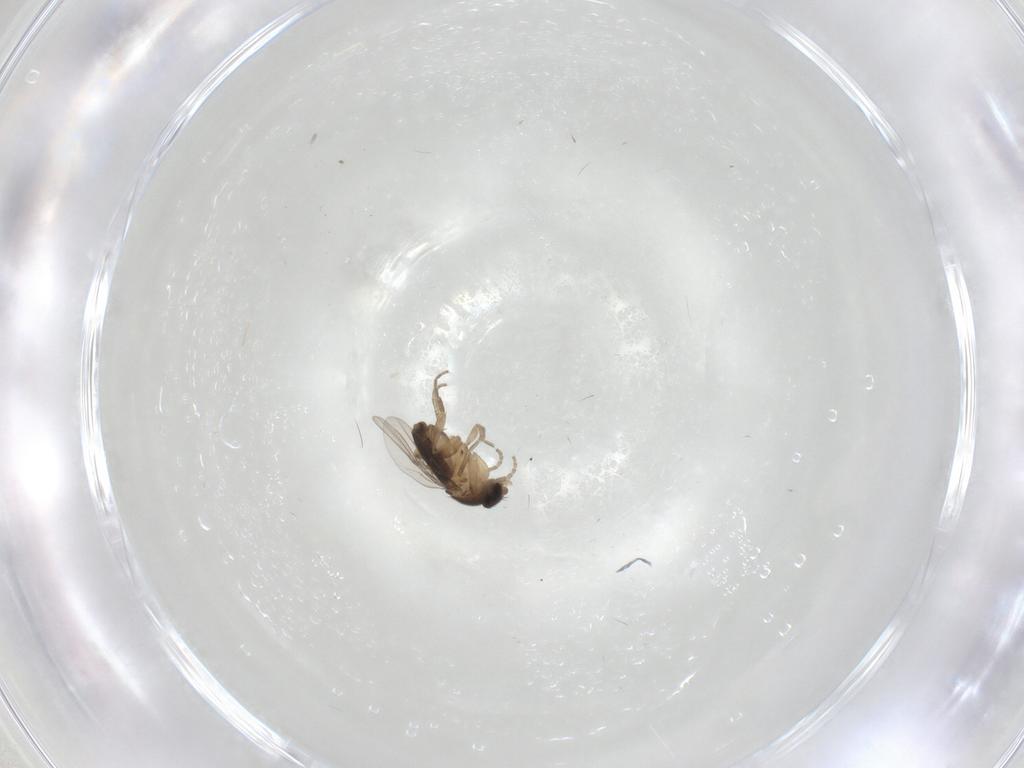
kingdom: Animalia
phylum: Arthropoda
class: Insecta
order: Diptera
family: Phoridae
